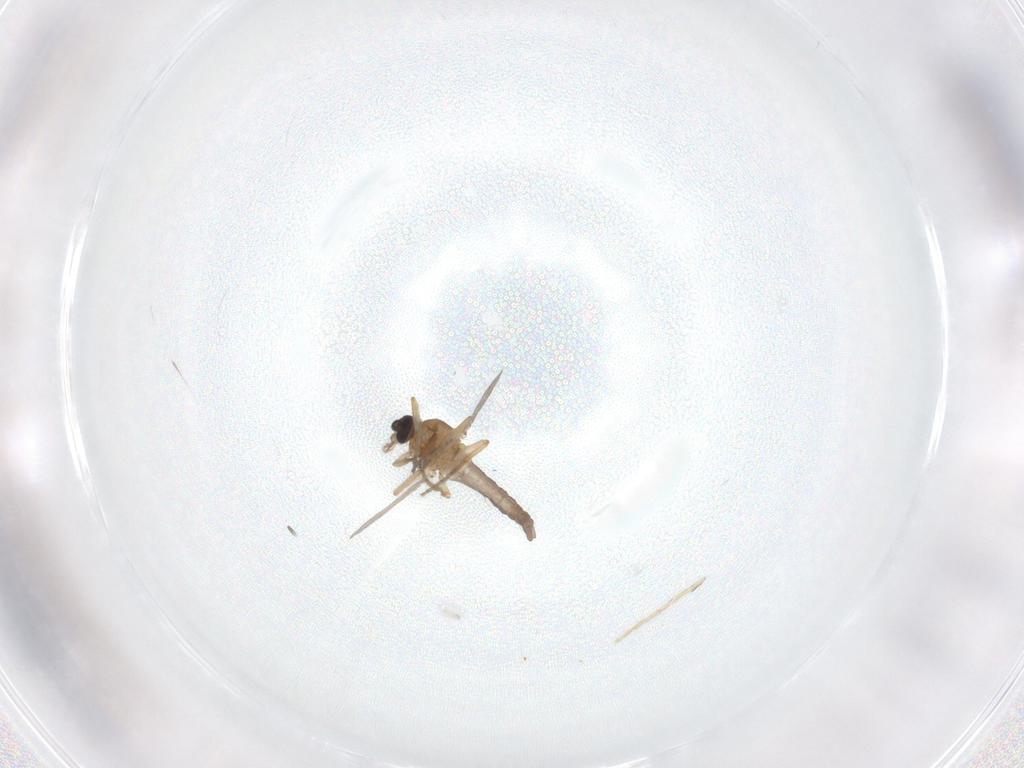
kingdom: Animalia
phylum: Arthropoda
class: Insecta
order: Diptera
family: Ceratopogonidae
